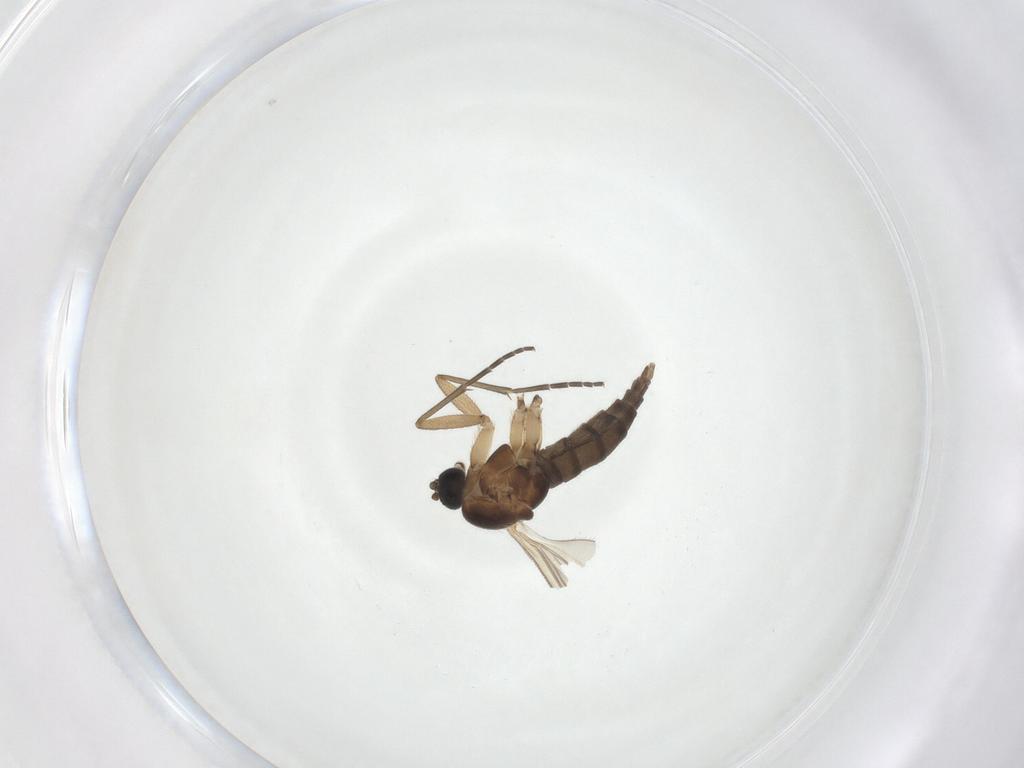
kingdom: Animalia
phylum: Arthropoda
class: Insecta
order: Diptera
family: Sciaridae
